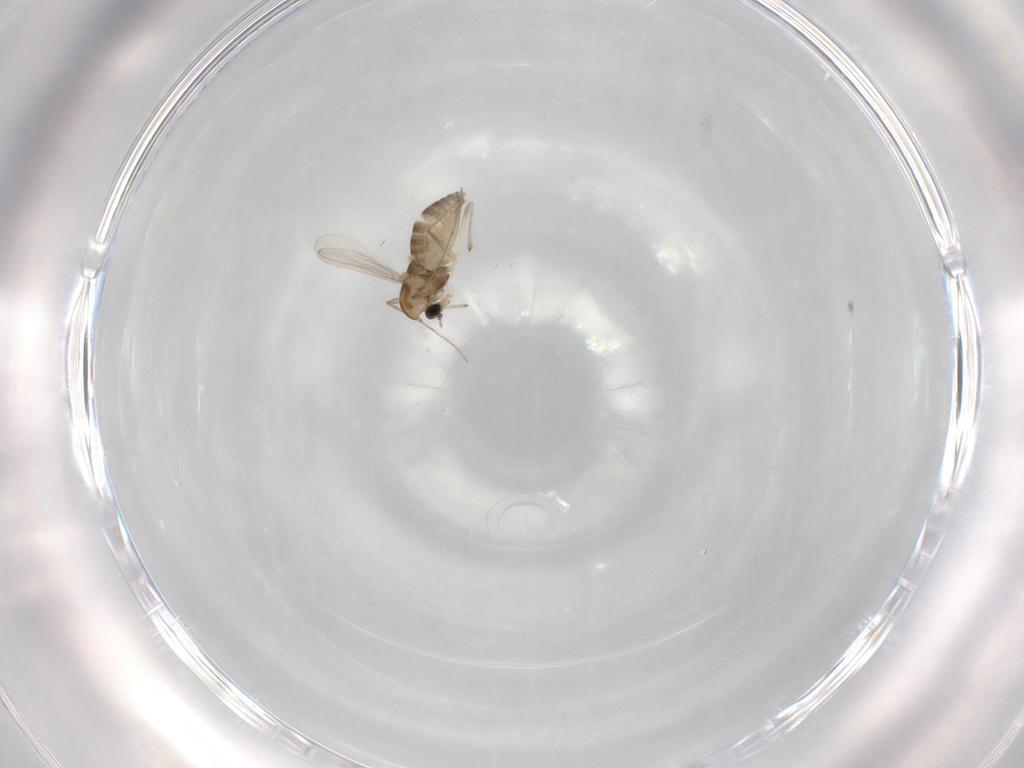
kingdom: Animalia
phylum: Arthropoda
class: Insecta
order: Diptera
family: Chironomidae
